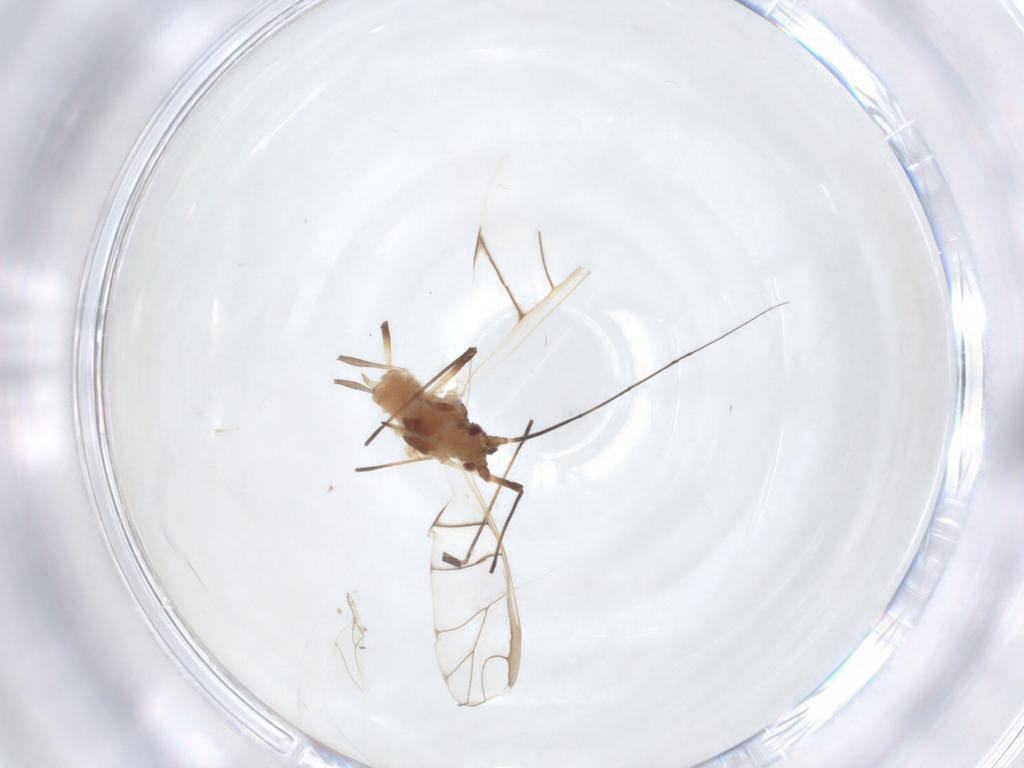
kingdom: Animalia
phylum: Arthropoda
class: Insecta
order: Hemiptera
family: Aphididae
